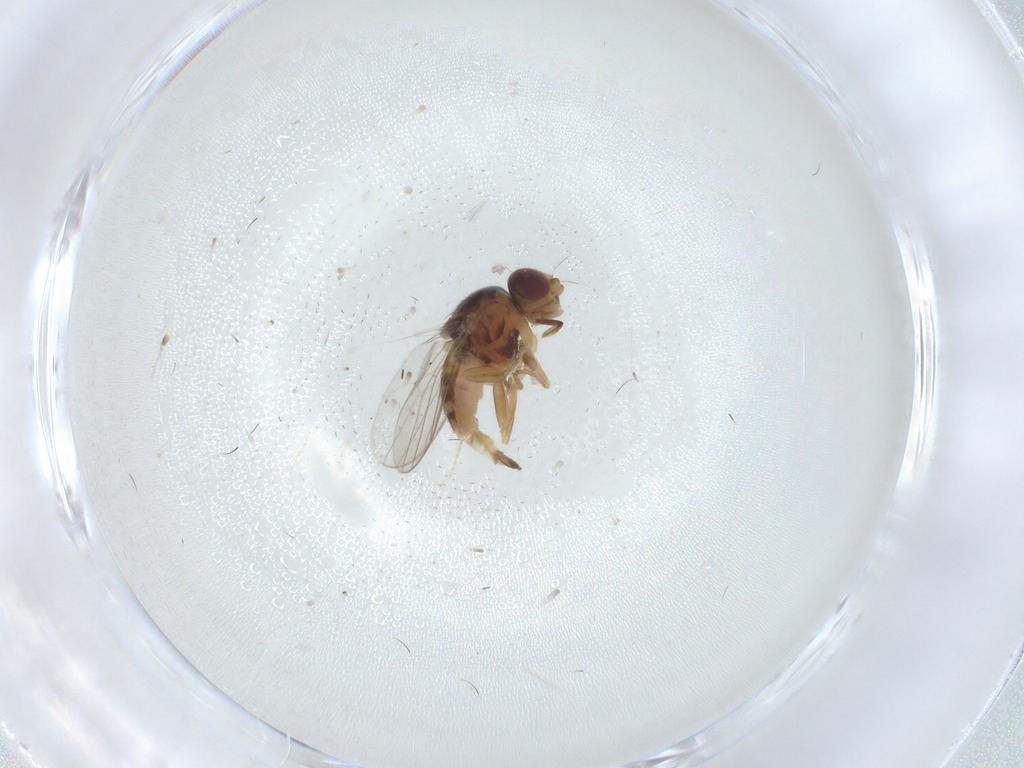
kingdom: Animalia
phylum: Arthropoda
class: Insecta
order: Diptera
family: Chloropidae
